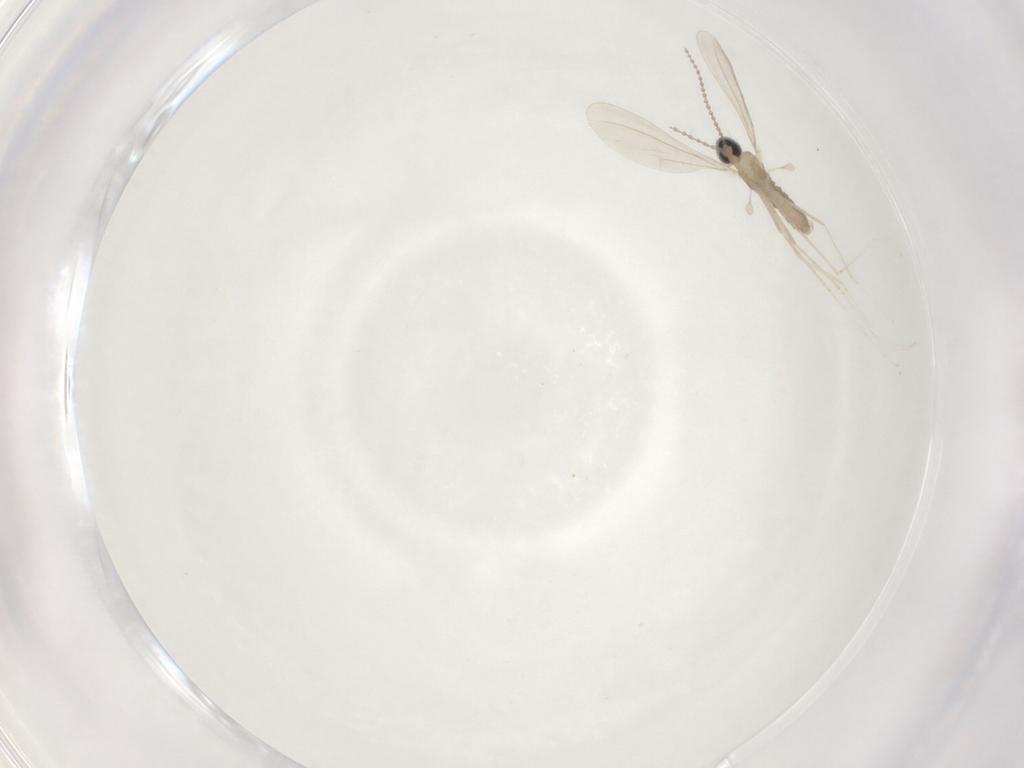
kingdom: Animalia
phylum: Arthropoda
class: Insecta
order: Diptera
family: Cecidomyiidae
